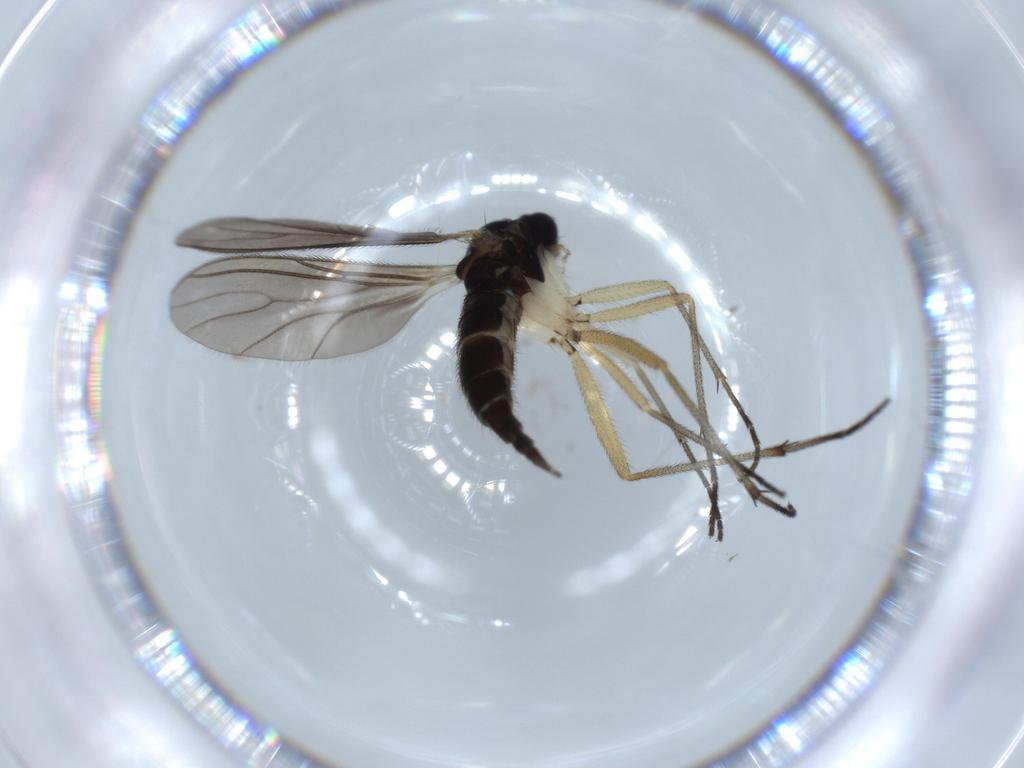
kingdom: Animalia
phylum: Arthropoda
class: Insecta
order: Diptera
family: Sciaridae
